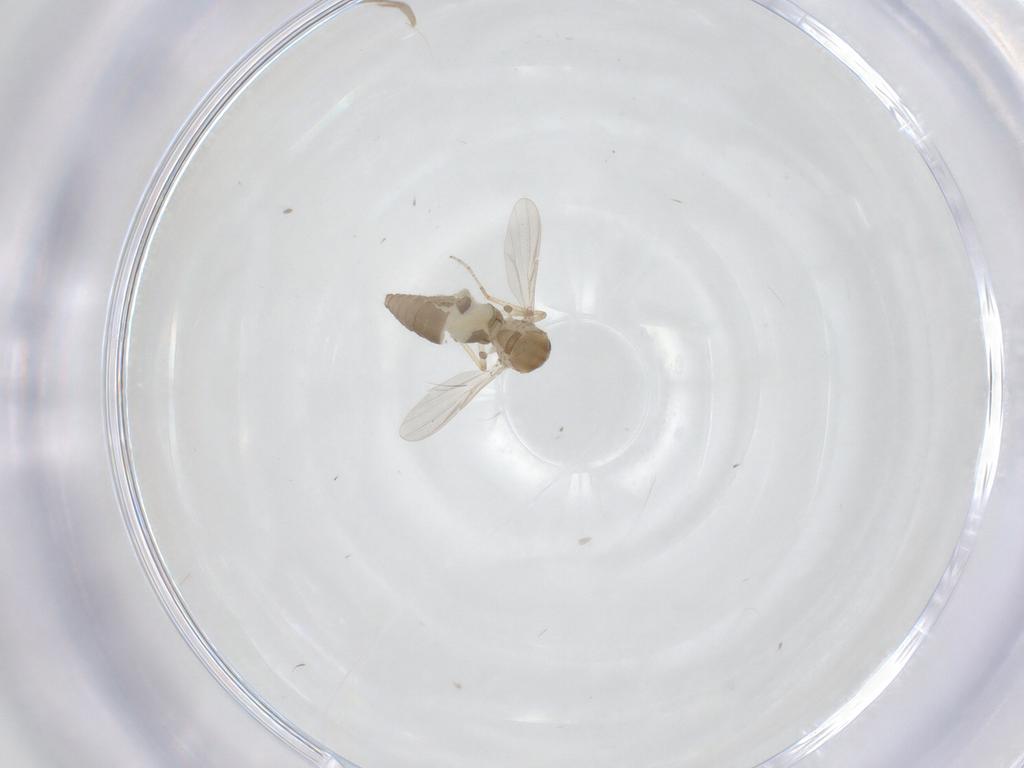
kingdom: Animalia
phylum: Arthropoda
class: Insecta
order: Diptera
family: Ceratopogonidae
